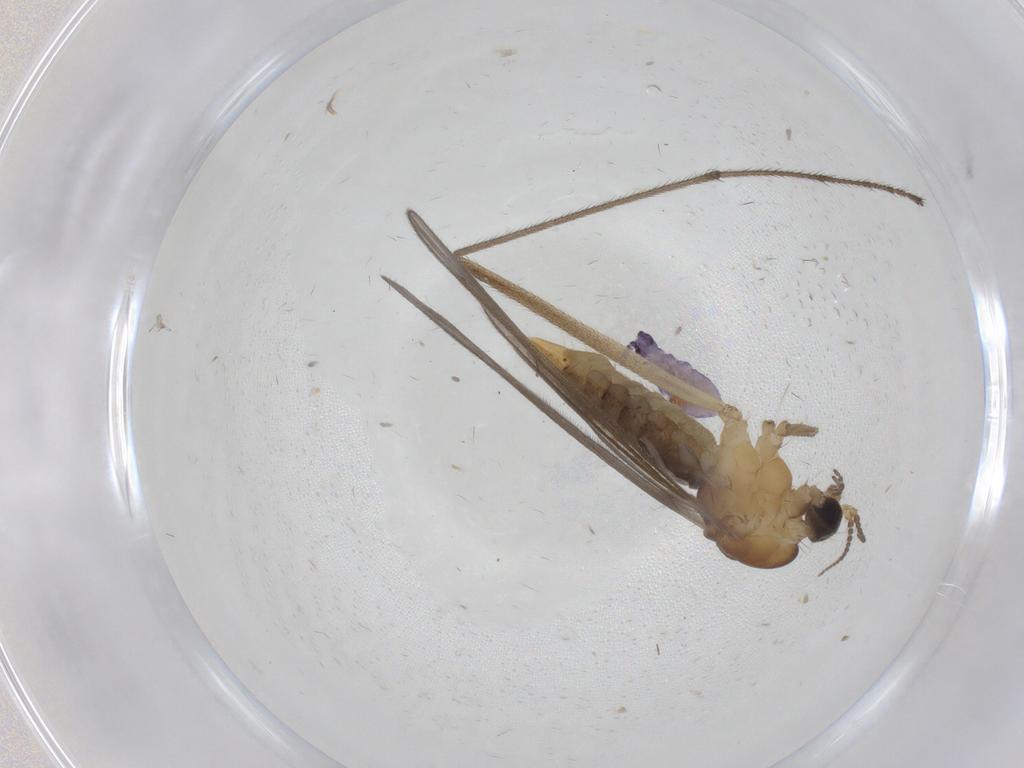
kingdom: Animalia
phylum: Arthropoda
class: Insecta
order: Diptera
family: Limoniidae
